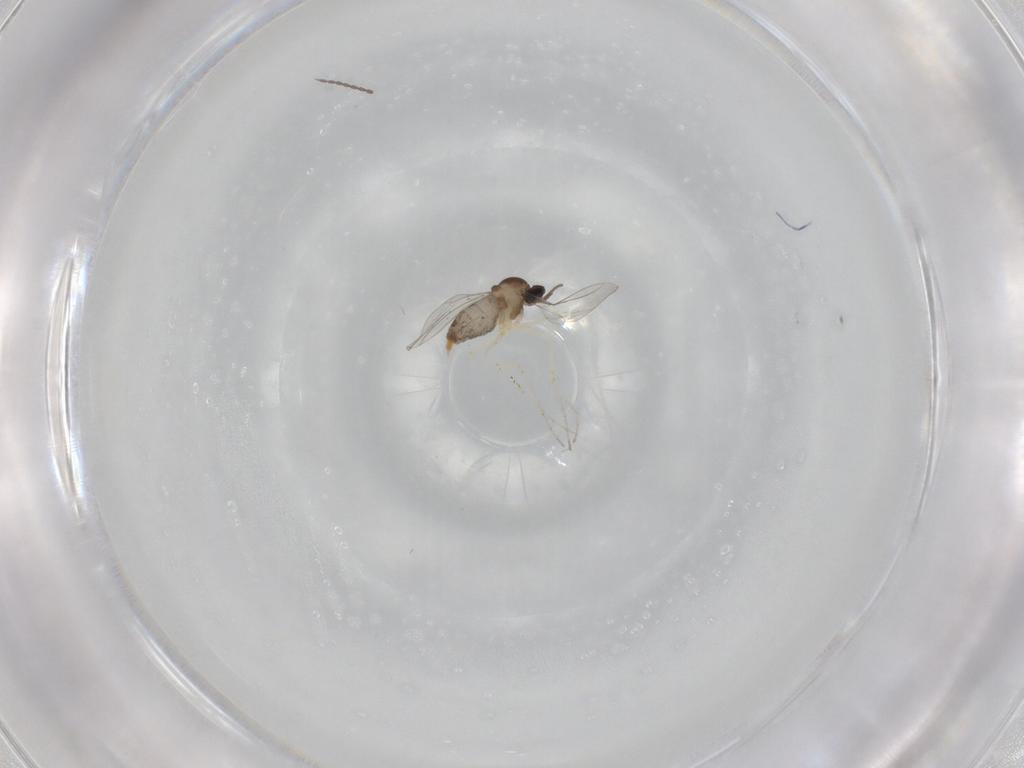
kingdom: Animalia
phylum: Arthropoda
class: Insecta
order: Diptera
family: Cecidomyiidae
